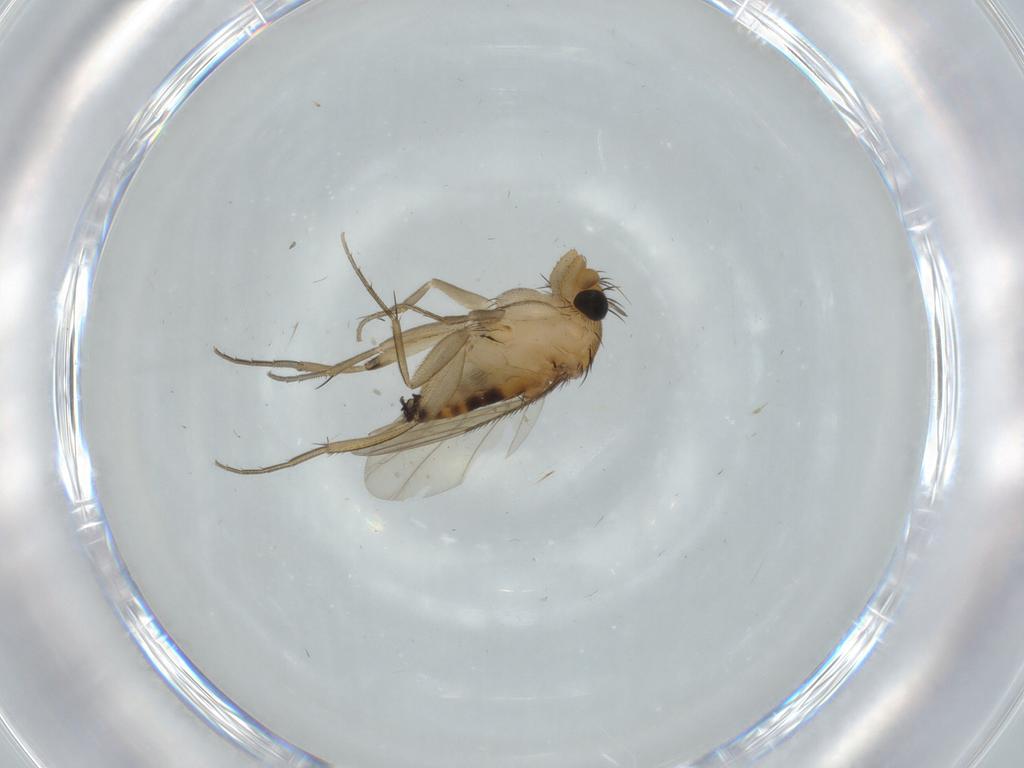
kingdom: Animalia
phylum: Arthropoda
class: Insecta
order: Diptera
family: Phoridae
